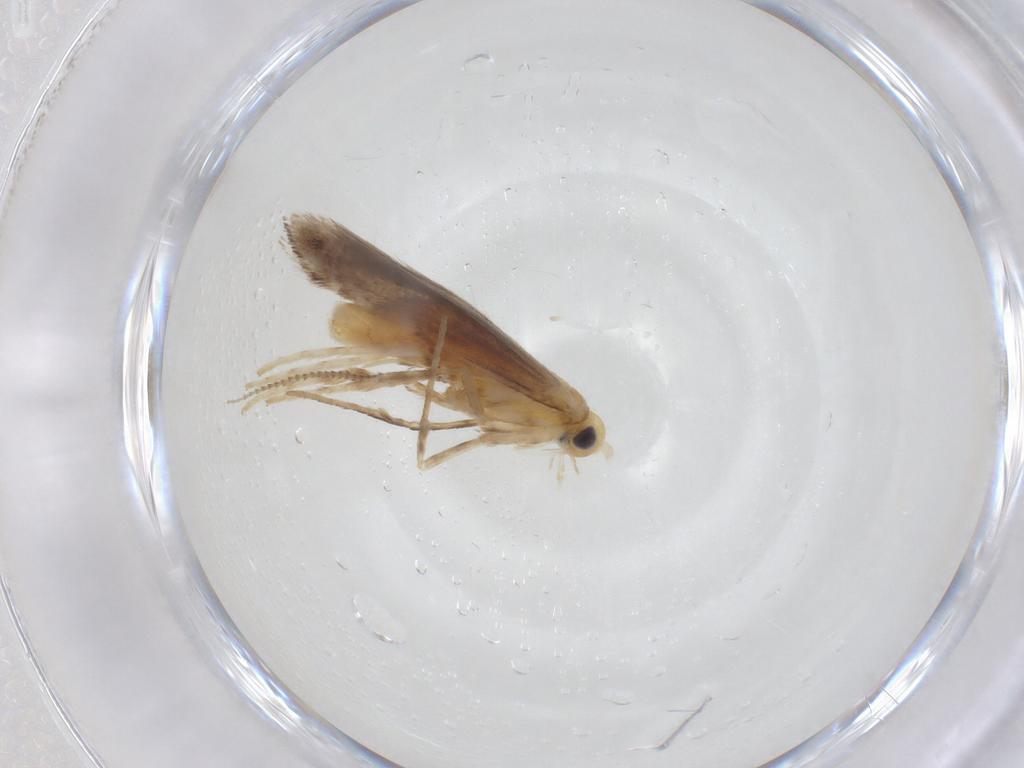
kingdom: Animalia
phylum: Arthropoda
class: Insecta
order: Lepidoptera
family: Gracillariidae
